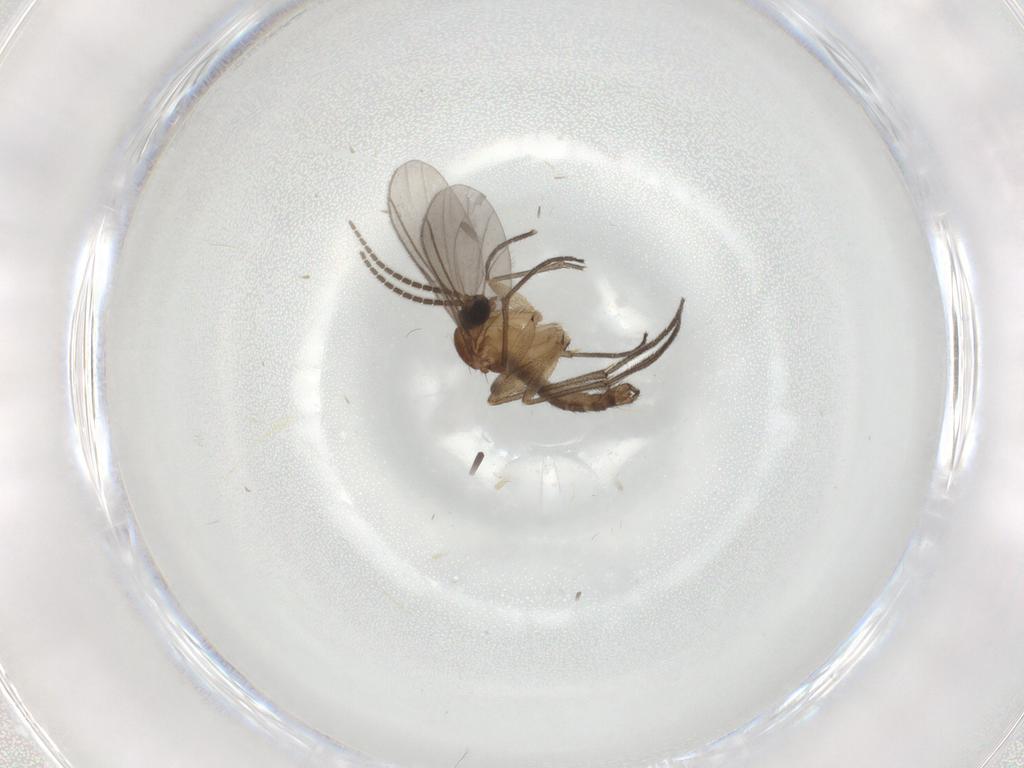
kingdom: Animalia
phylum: Arthropoda
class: Insecta
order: Diptera
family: Sciaridae
